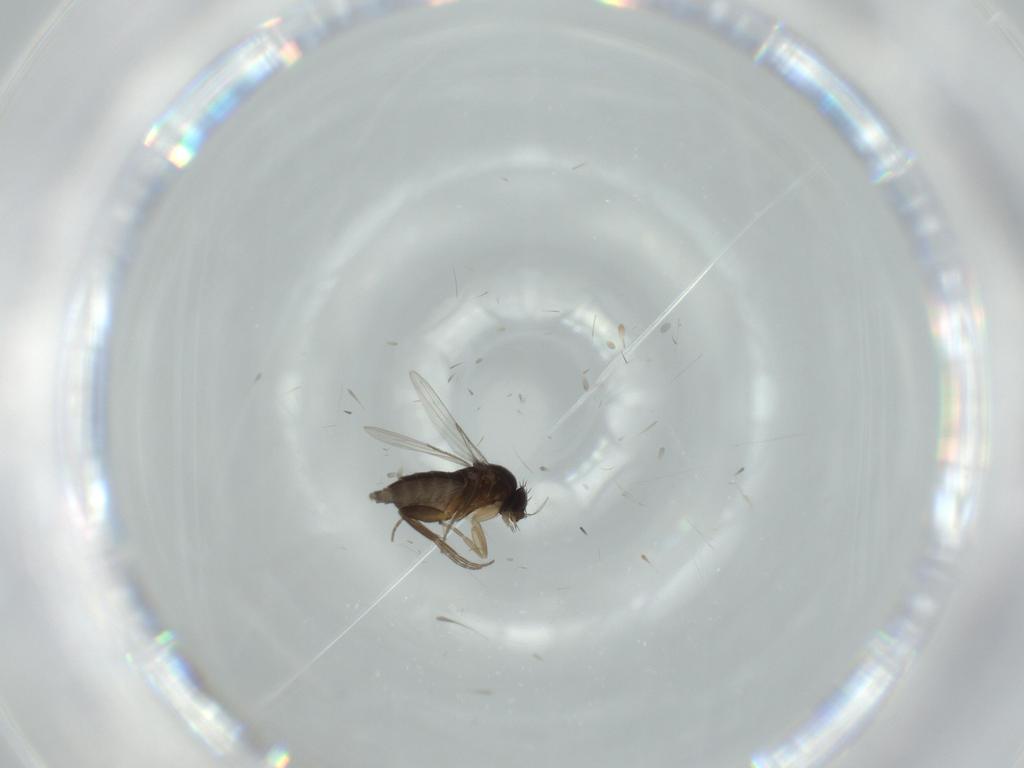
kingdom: Animalia
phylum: Arthropoda
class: Insecta
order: Diptera
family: Phoridae
